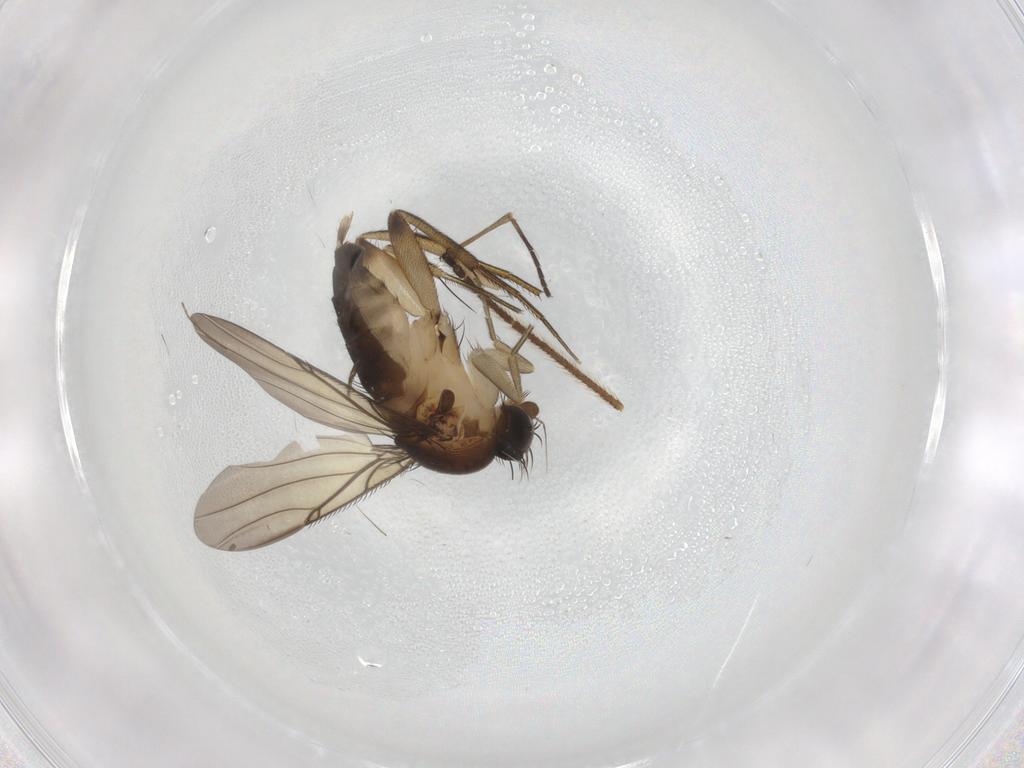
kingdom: Animalia
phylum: Arthropoda
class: Insecta
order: Diptera
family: Limoniidae
